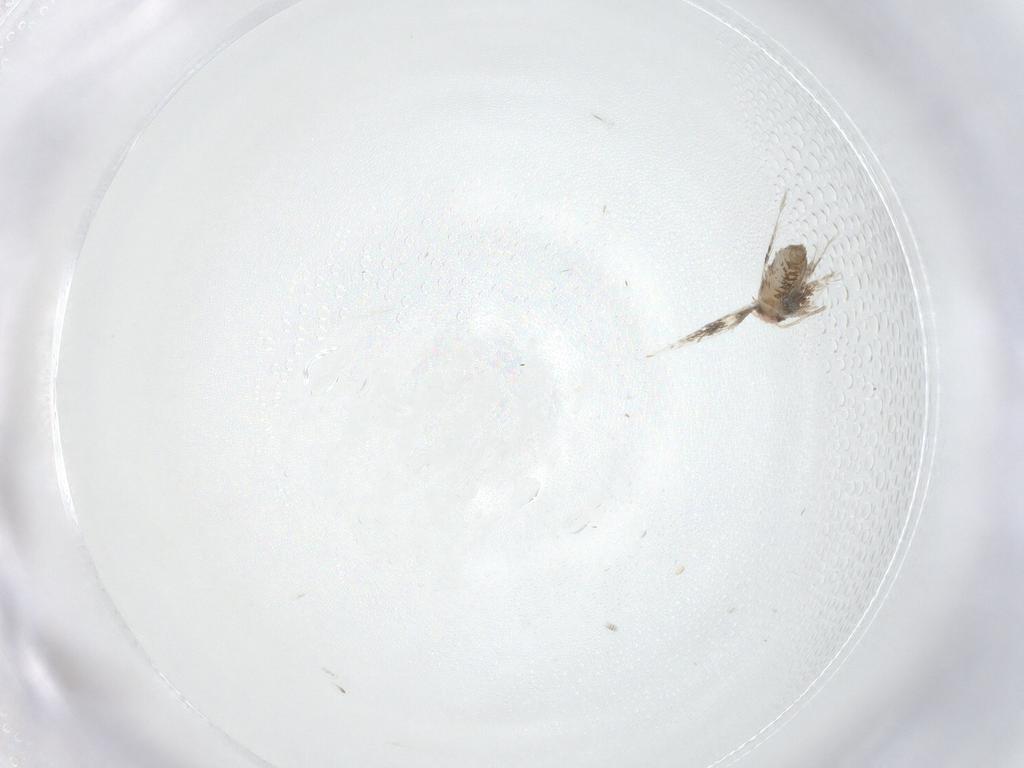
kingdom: Animalia
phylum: Arthropoda
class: Insecta
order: Lepidoptera
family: Nepticulidae
